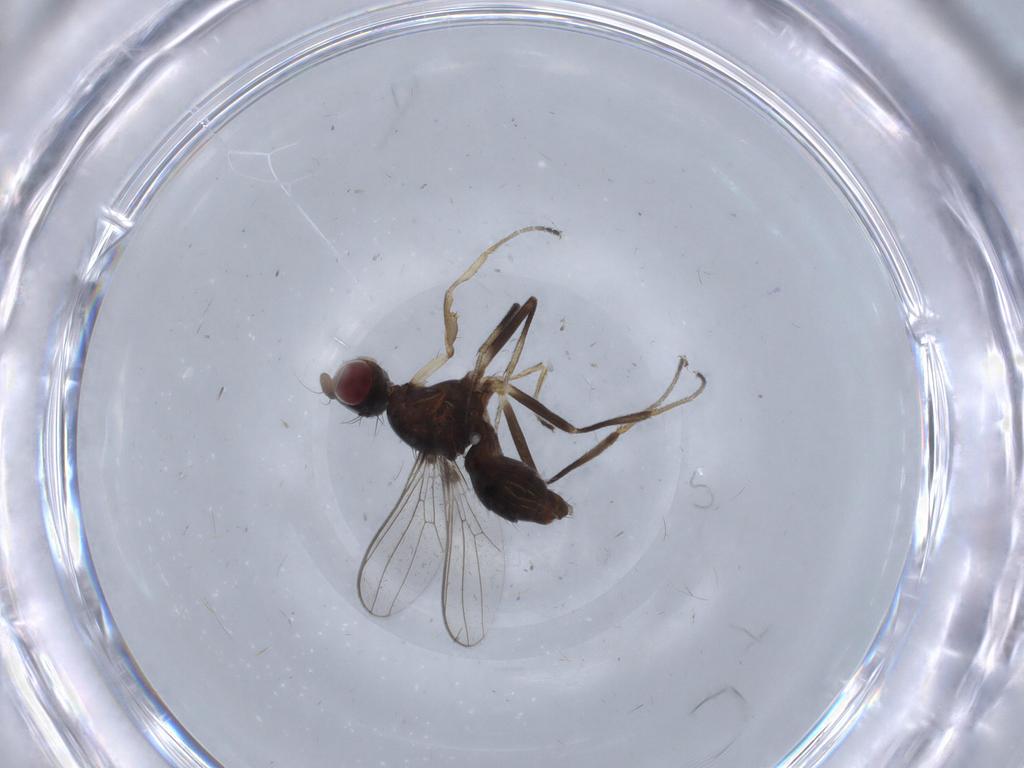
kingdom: Animalia
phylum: Arthropoda
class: Insecta
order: Diptera
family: Sepsidae
